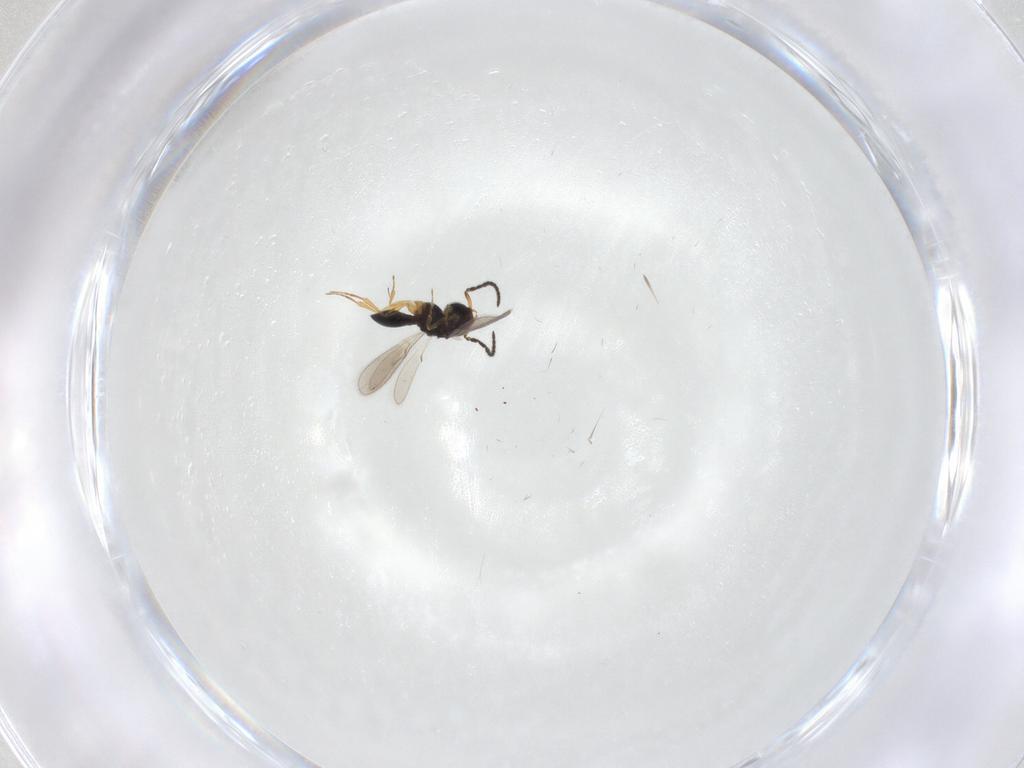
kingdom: Animalia
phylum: Arthropoda
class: Insecta
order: Hymenoptera
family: Scelionidae
